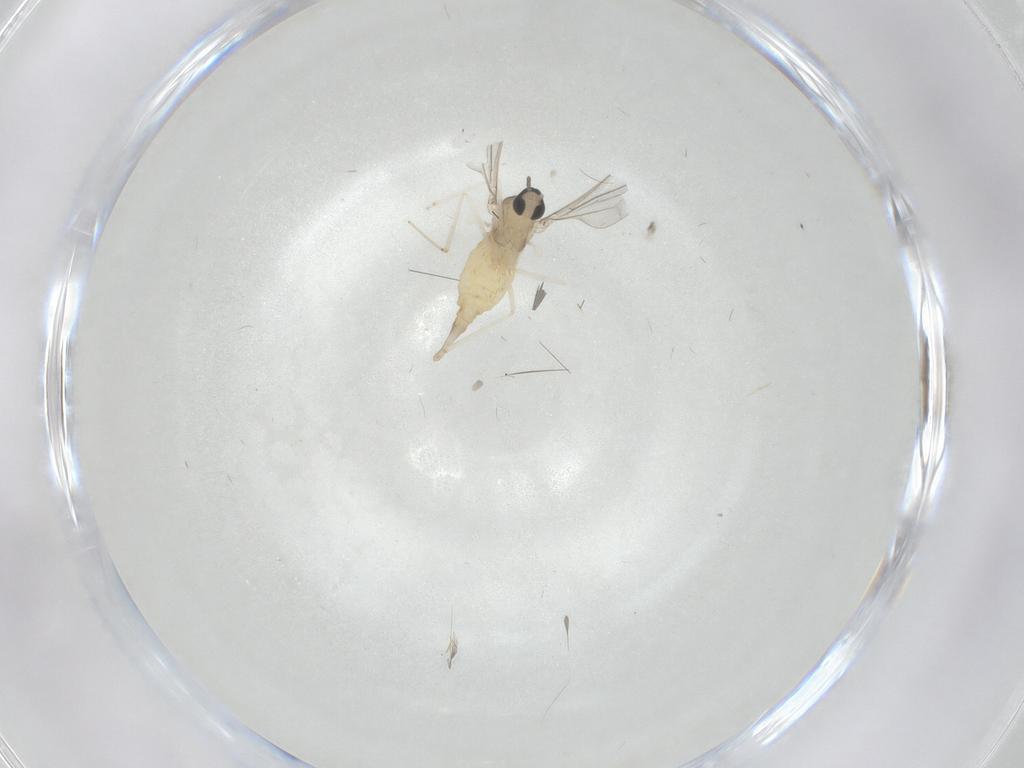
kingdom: Animalia
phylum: Arthropoda
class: Insecta
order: Diptera
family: Sciaridae
